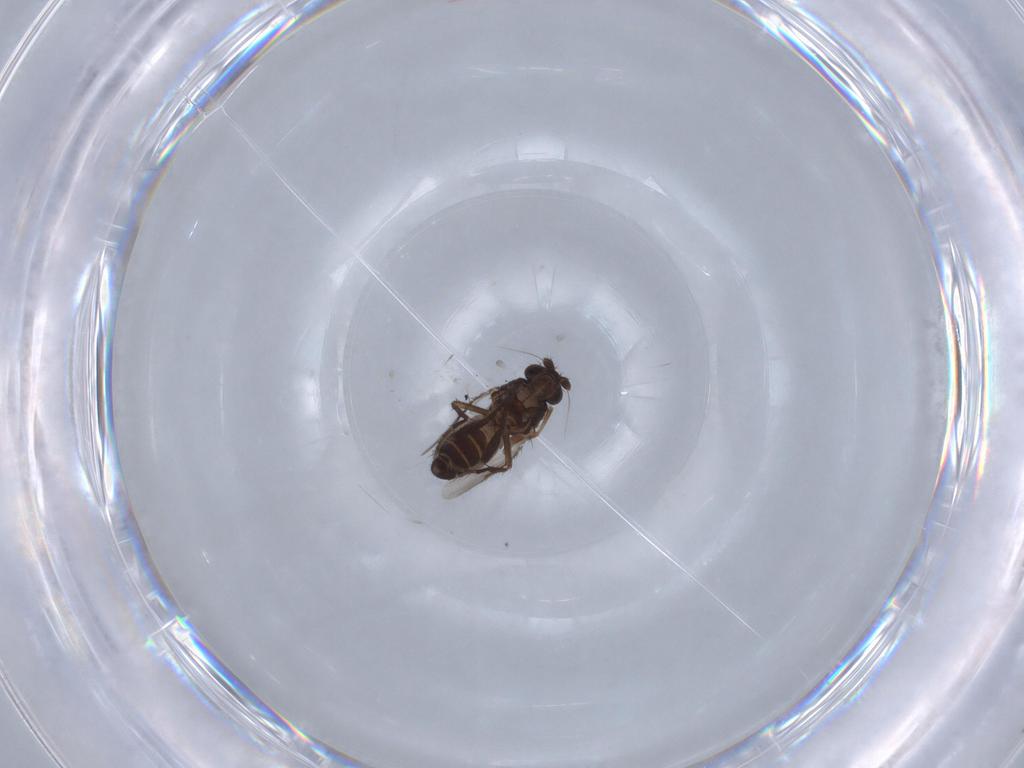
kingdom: Animalia
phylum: Arthropoda
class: Insecta
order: Diptera
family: Sphaeroceridae
